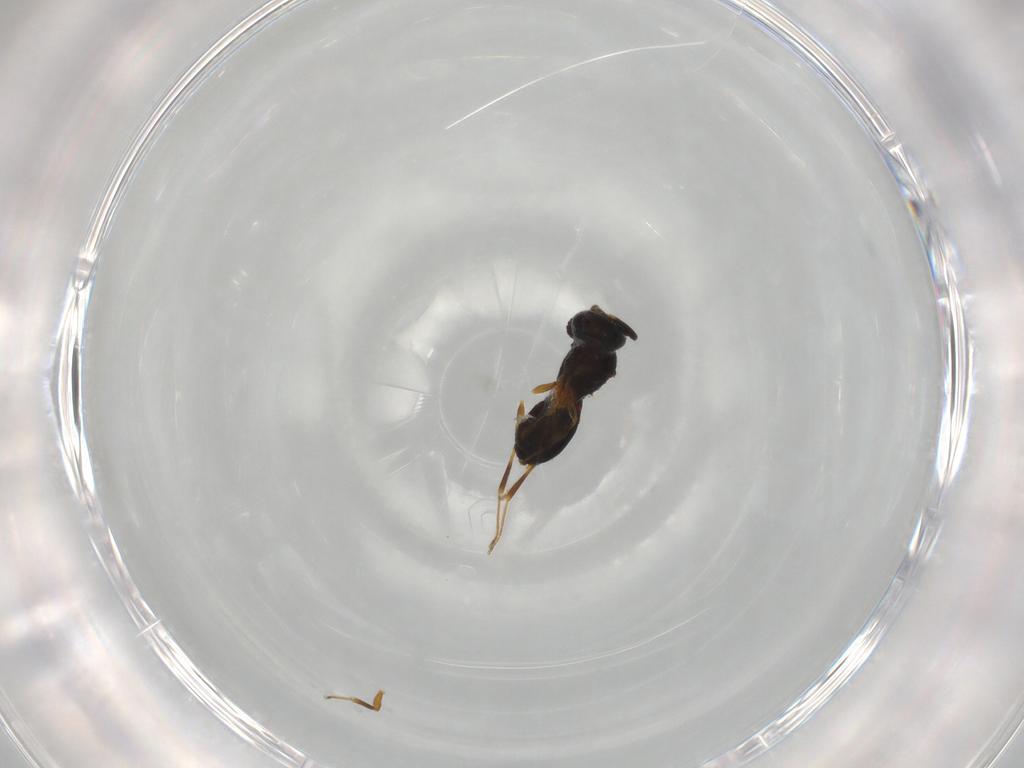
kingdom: Animalia
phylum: Arthropoda
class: Insecta
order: Hymenoptera
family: Scelionidae
